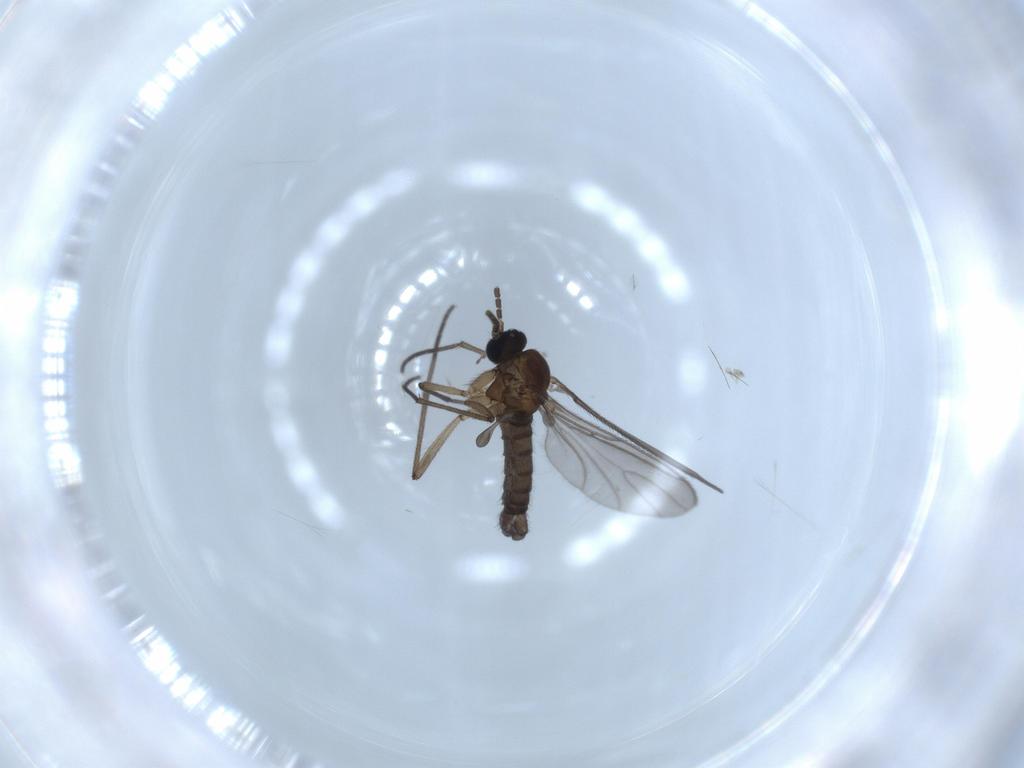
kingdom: Animalia
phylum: Arthropoda
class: Insecta
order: Diptera
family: Sciaridae
